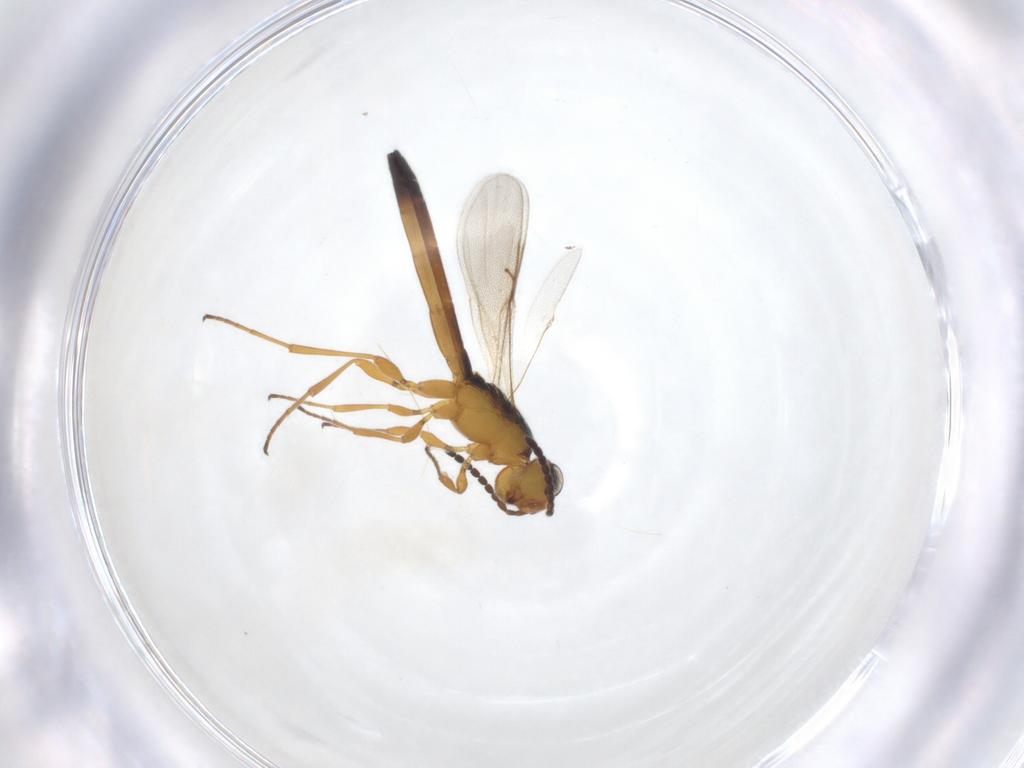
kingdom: Animalia
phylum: Arthropoda
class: Insecta
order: Hymenoptera
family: Scelionidae
